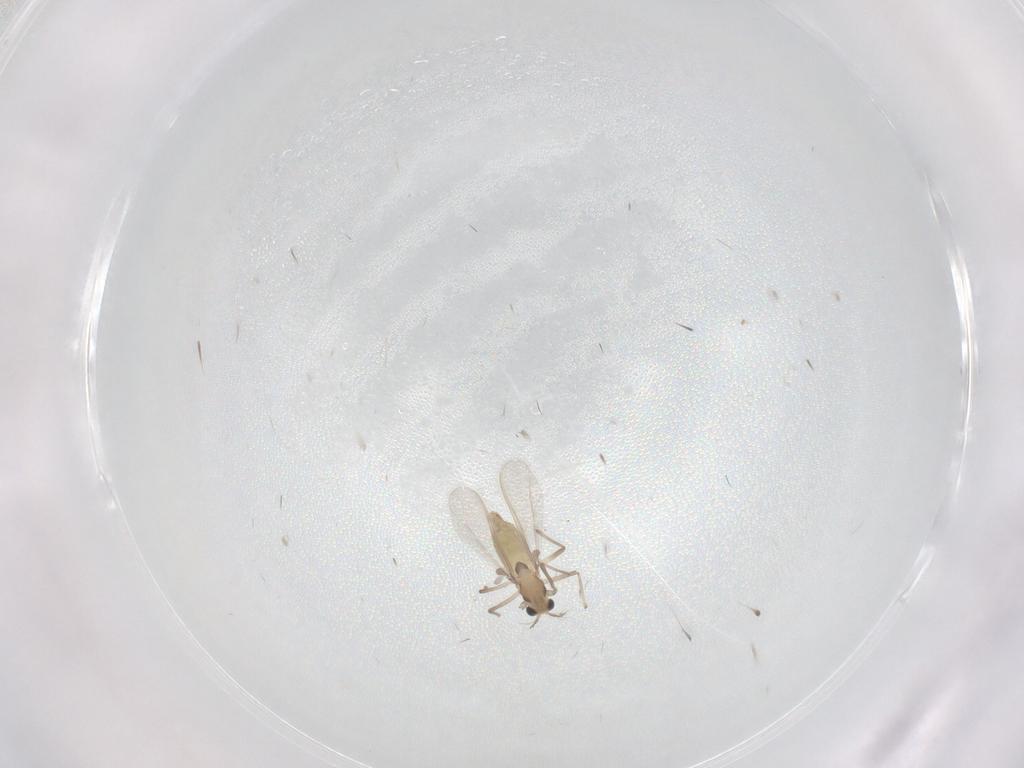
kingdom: Animalia
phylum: Arthropoda
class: Insecta
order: Diptera
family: Chironomidae
